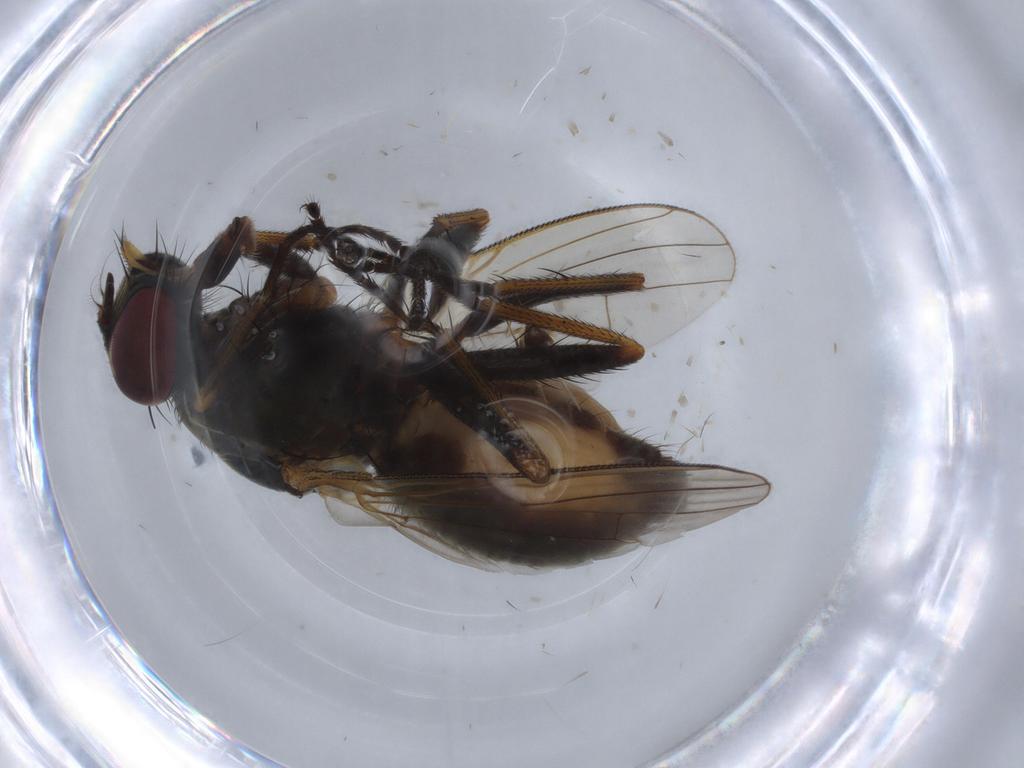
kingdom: Animalia
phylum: Arthropoda
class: Insecta
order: Diptera
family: Muscidae
